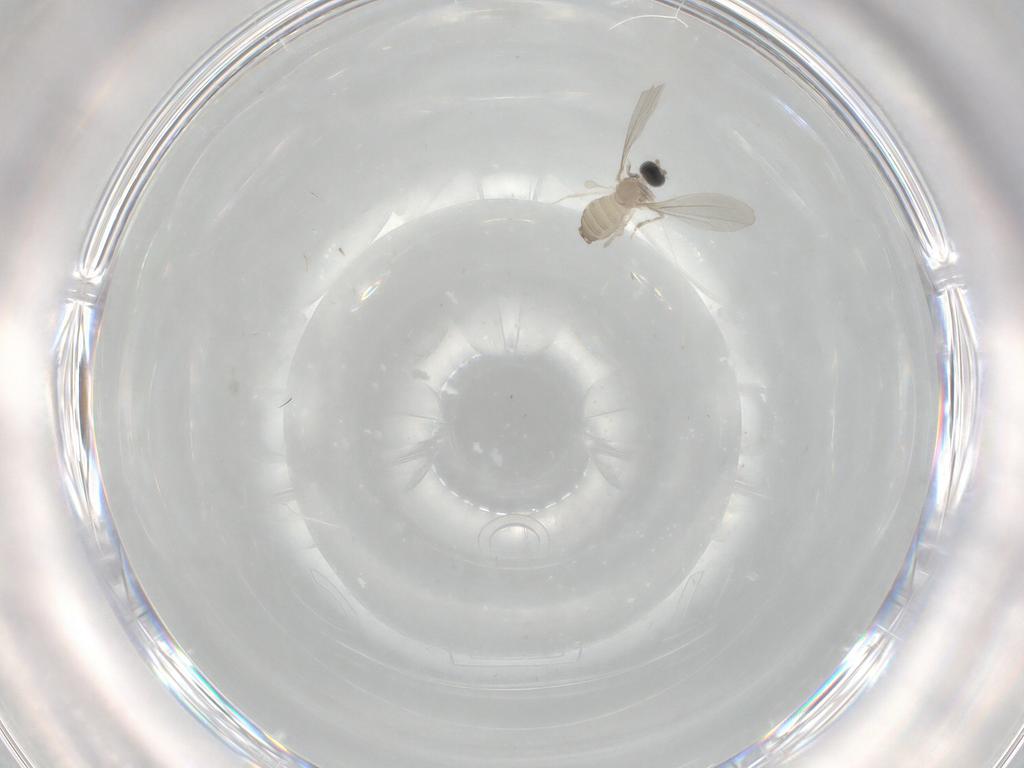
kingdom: Animalia
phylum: Arthropoda
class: Insecta
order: Diptera
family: Cecidomyiidae
